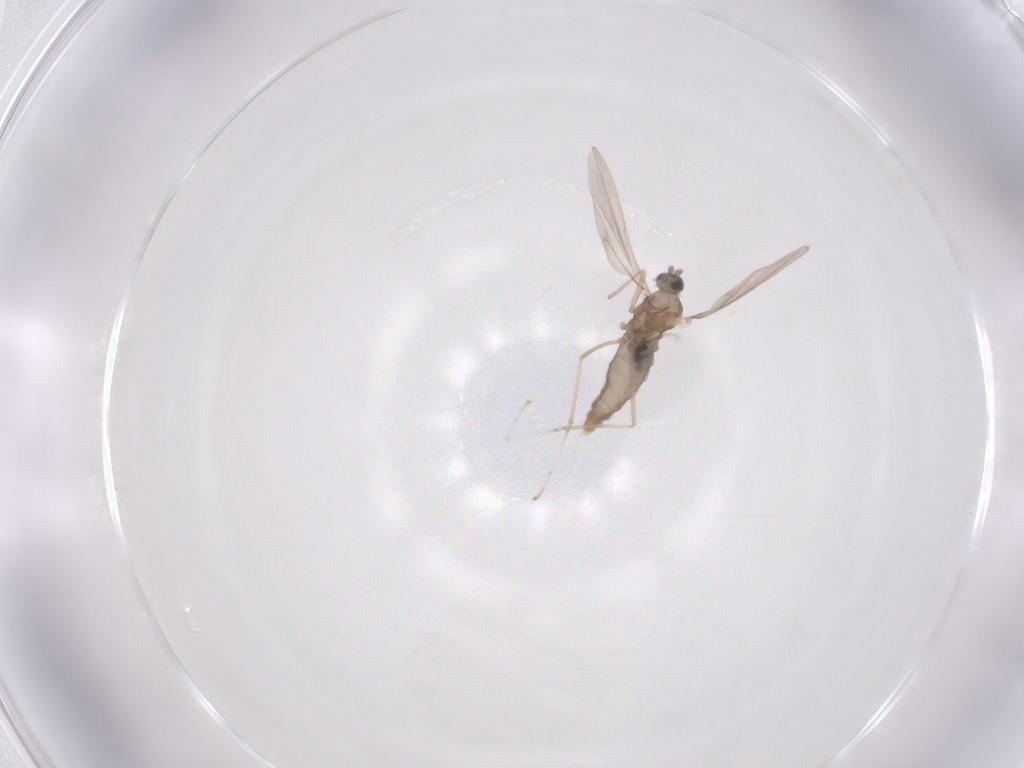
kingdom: Animalia
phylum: Arthropoda
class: Insecta
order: Diptera
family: Cecidomyiidae
